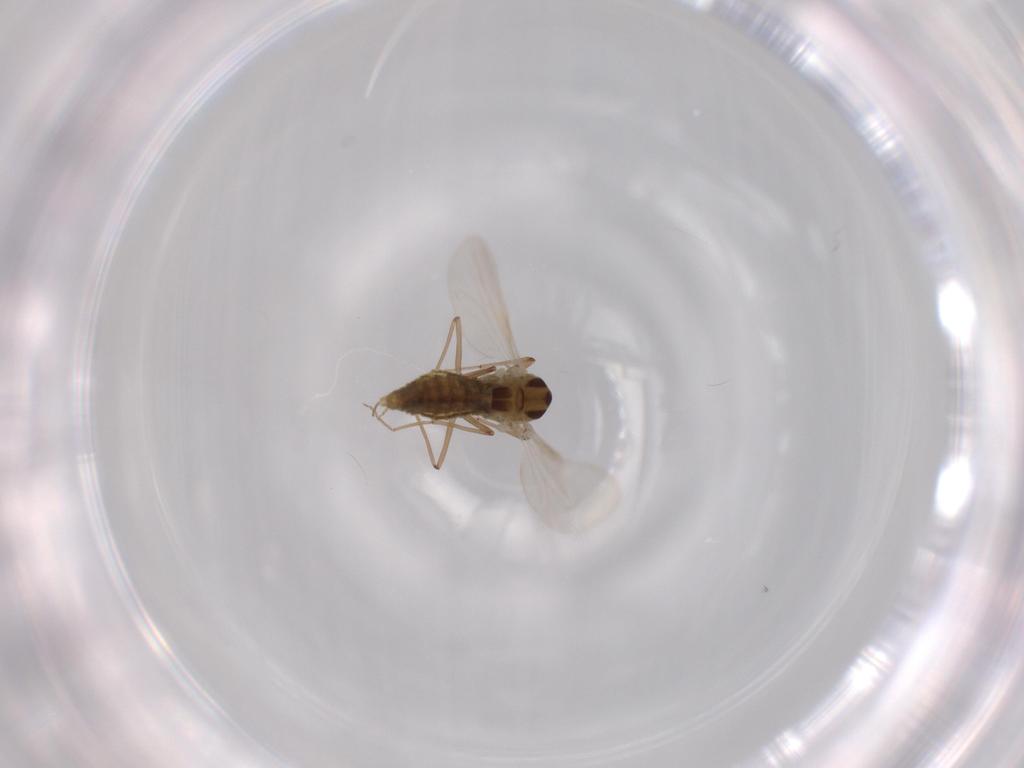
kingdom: Animalia
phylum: Arthropoda
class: Insecta
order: Diptera
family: Chironomidae
